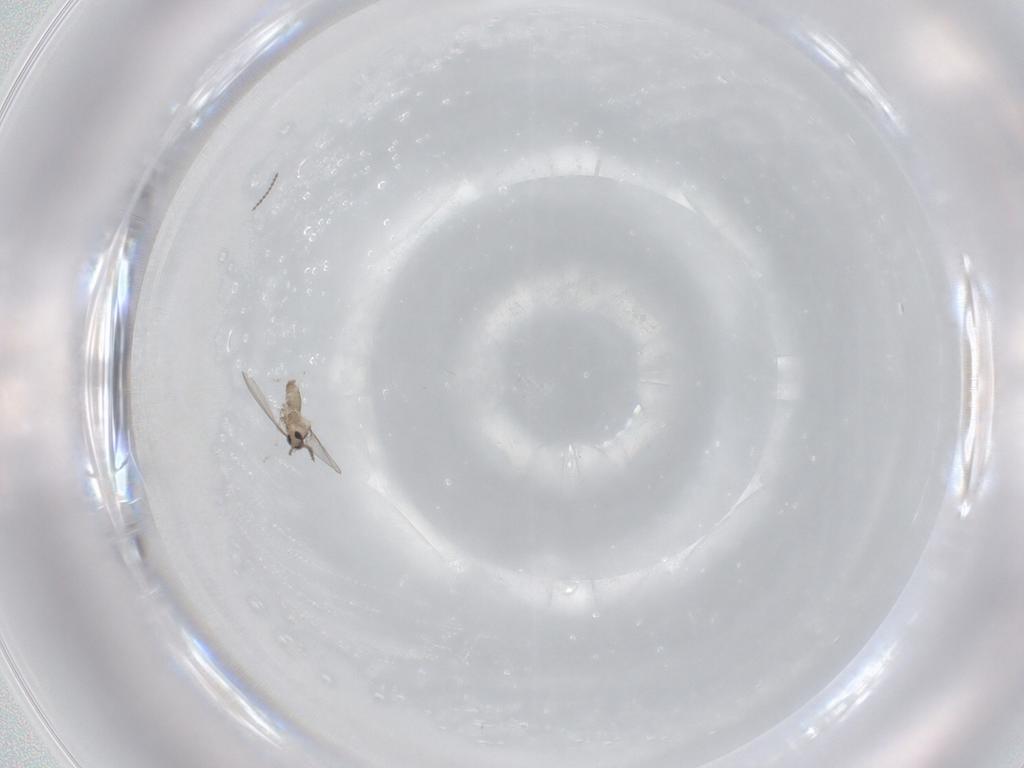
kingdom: Animalia
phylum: Arthropoda
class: Insecta
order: Diptera
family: Cecidomyiidae
